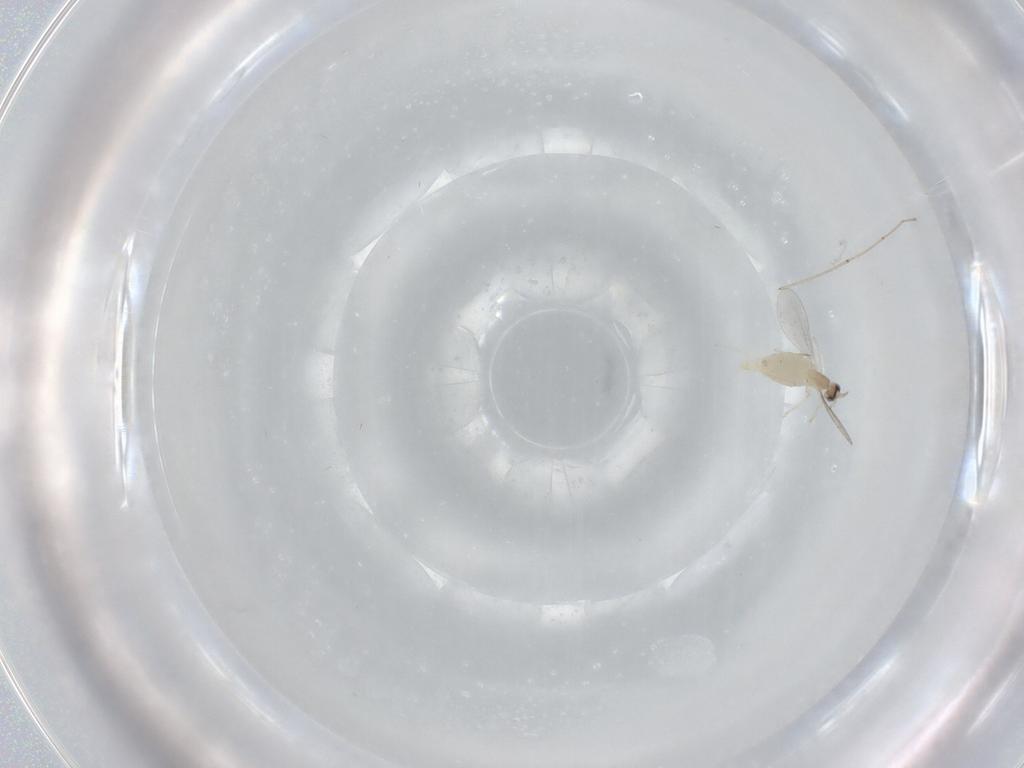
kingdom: Animalia
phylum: Arthropoda
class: Insecta
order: Diptera
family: Cecidomyiidae
